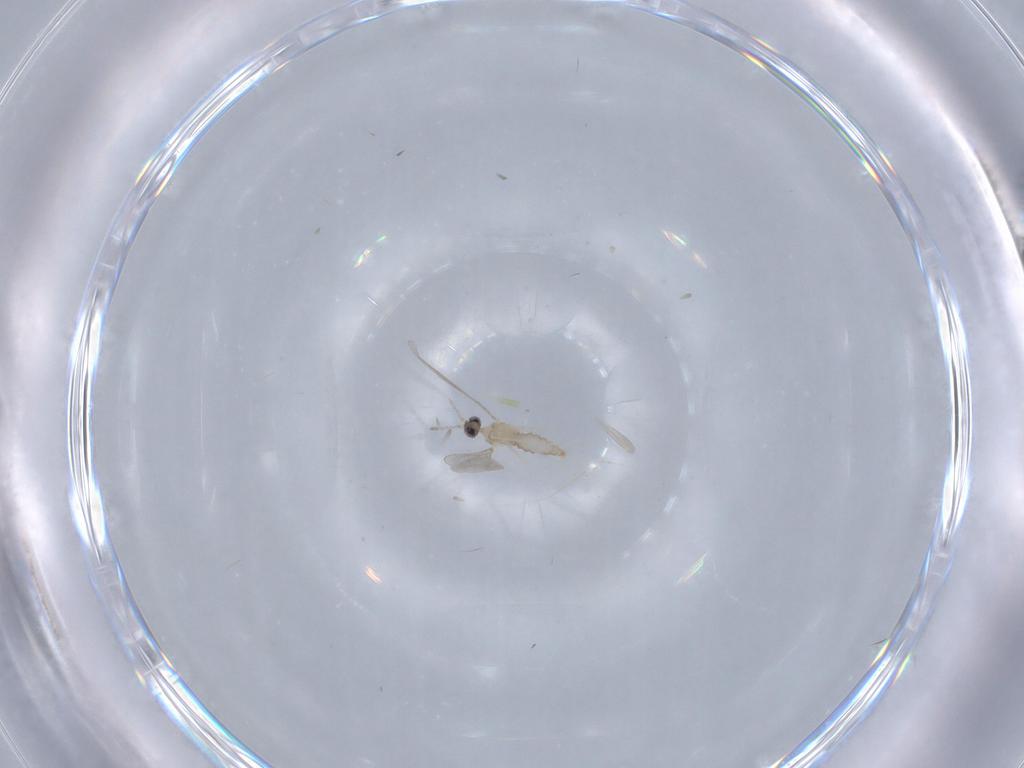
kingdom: Animalia
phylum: Arthropoda
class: Insecta
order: Diptera
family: Cecidomyiidae
